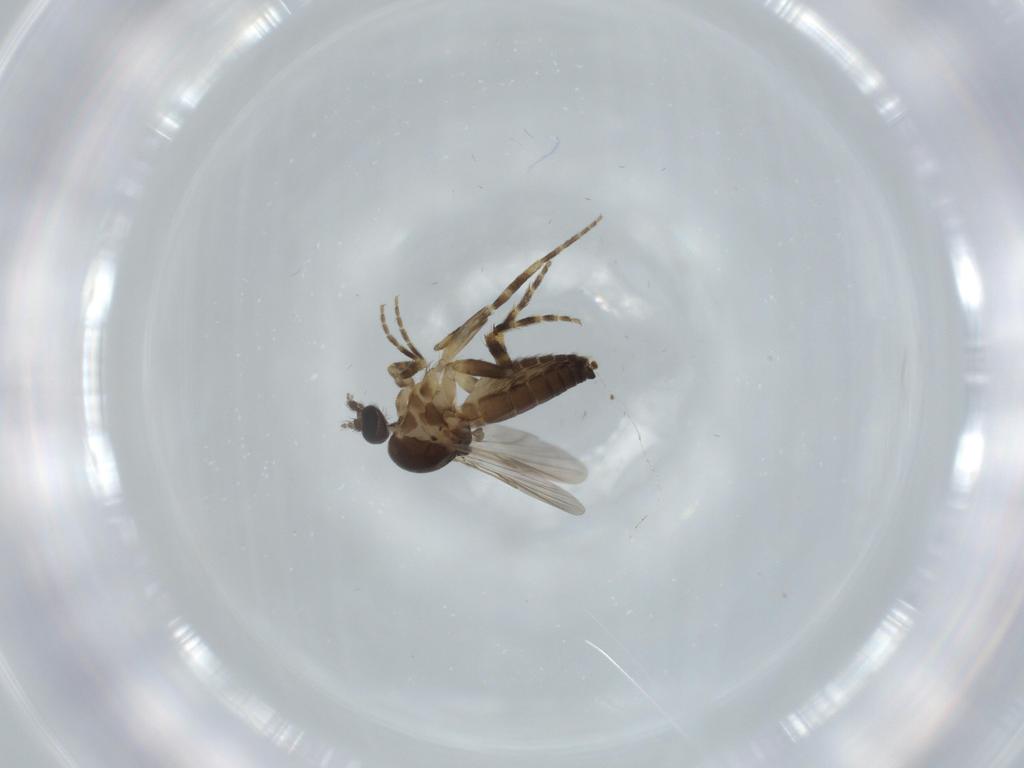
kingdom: Animalia
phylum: Arthropoda
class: Insecta
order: Diptera
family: Ceratopogonidae
